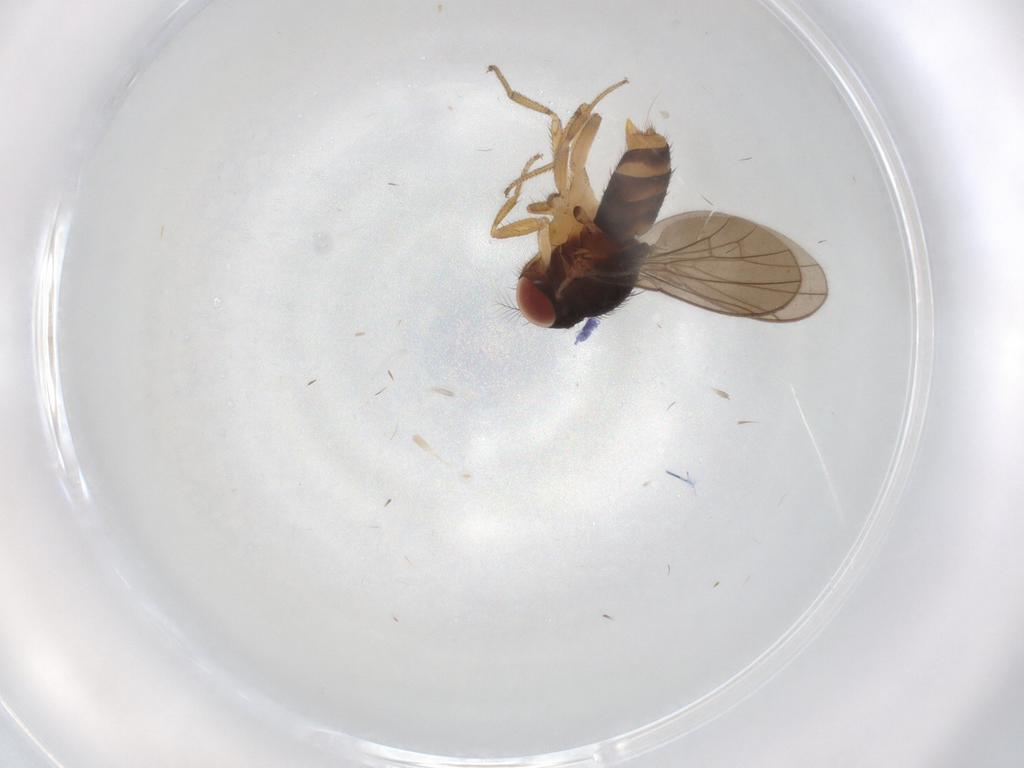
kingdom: Animalia
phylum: Arthropoda
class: Insecta
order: Diptera
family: Drosophilidae
